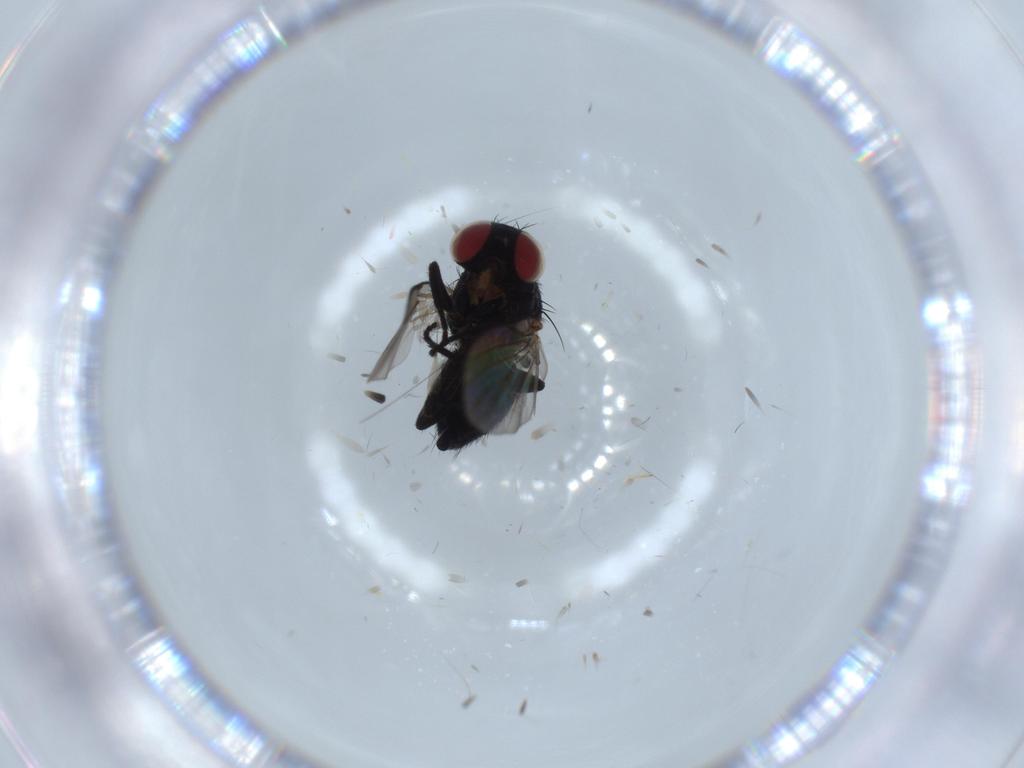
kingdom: Animalia
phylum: Arthropoda
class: Insecta
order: Diptera
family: Agromyzidae
